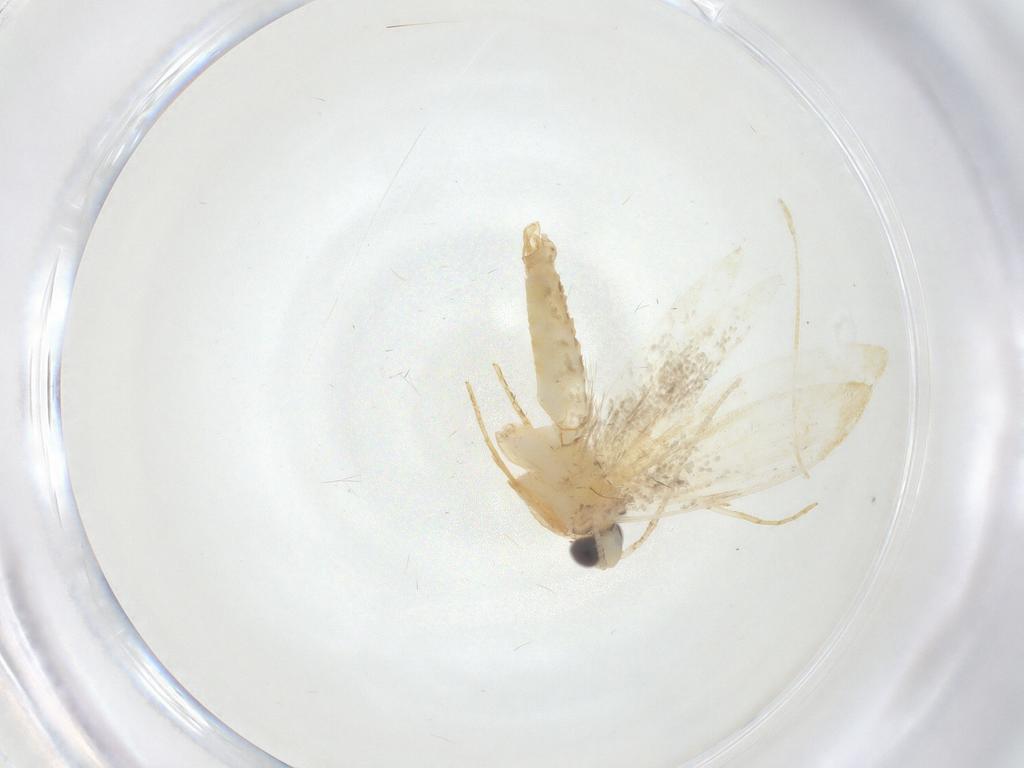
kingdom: Animalia
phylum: Arthropoda
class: Insecta
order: Lepidoptera
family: Tineidae
